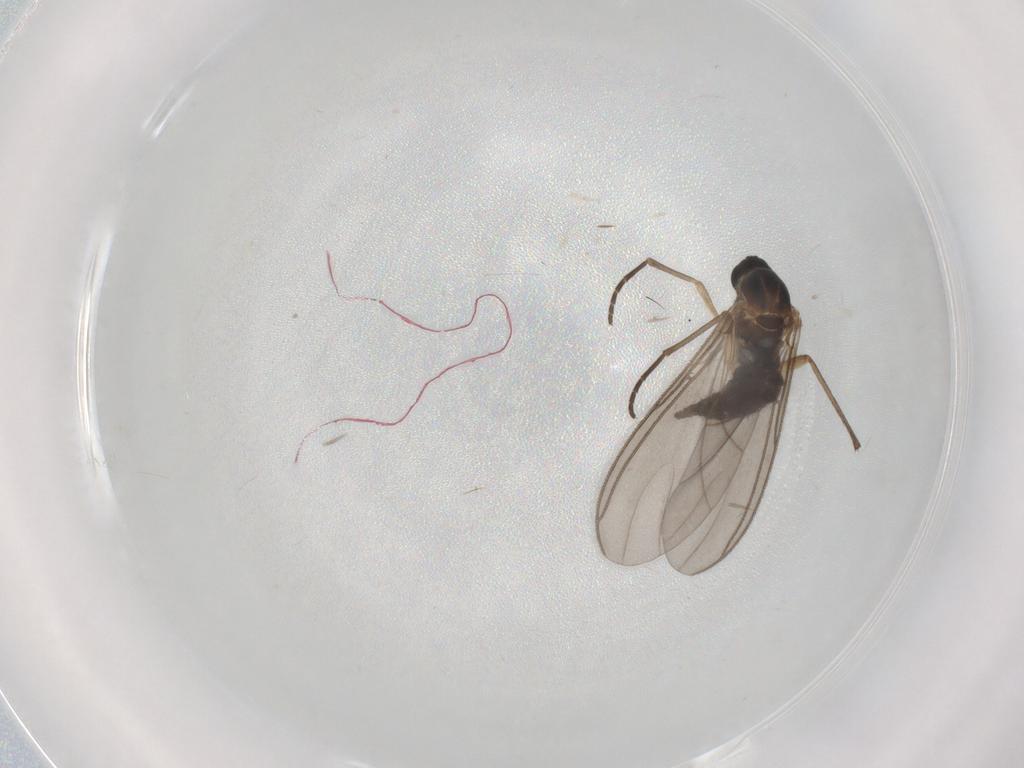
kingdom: Animalia
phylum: Arthropoda
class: Insecta
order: Diptera
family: Sciaridae
